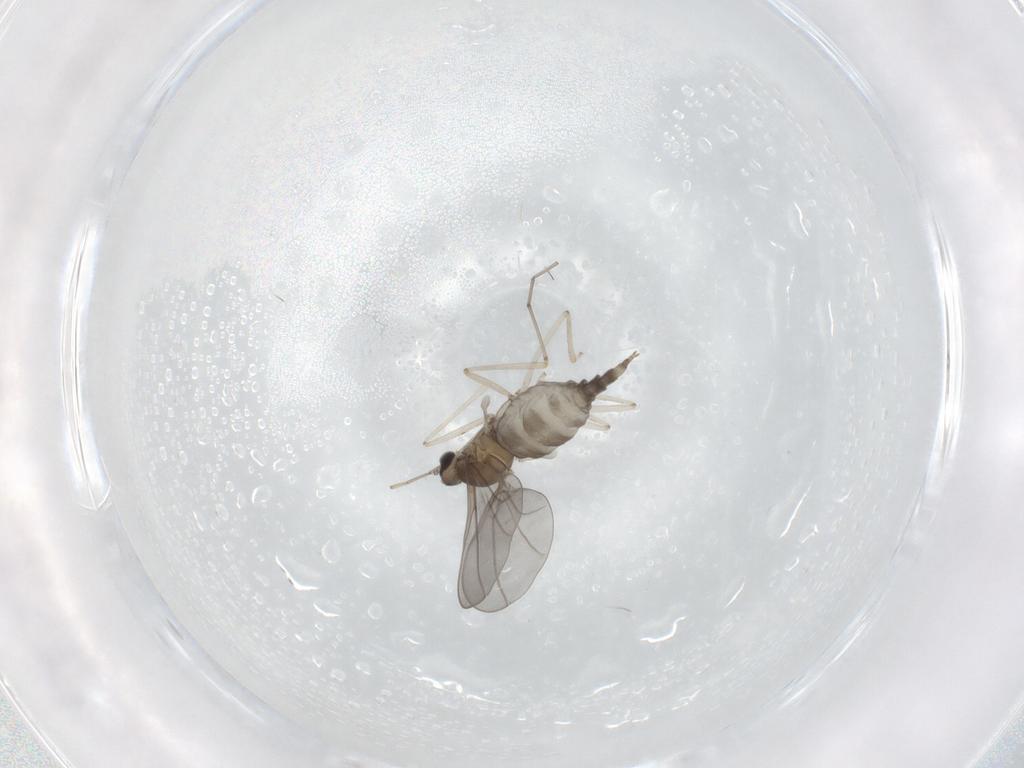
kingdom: Animalia
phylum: Arthropoda
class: Insecta
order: Diptera
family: Cecidomyiidae
